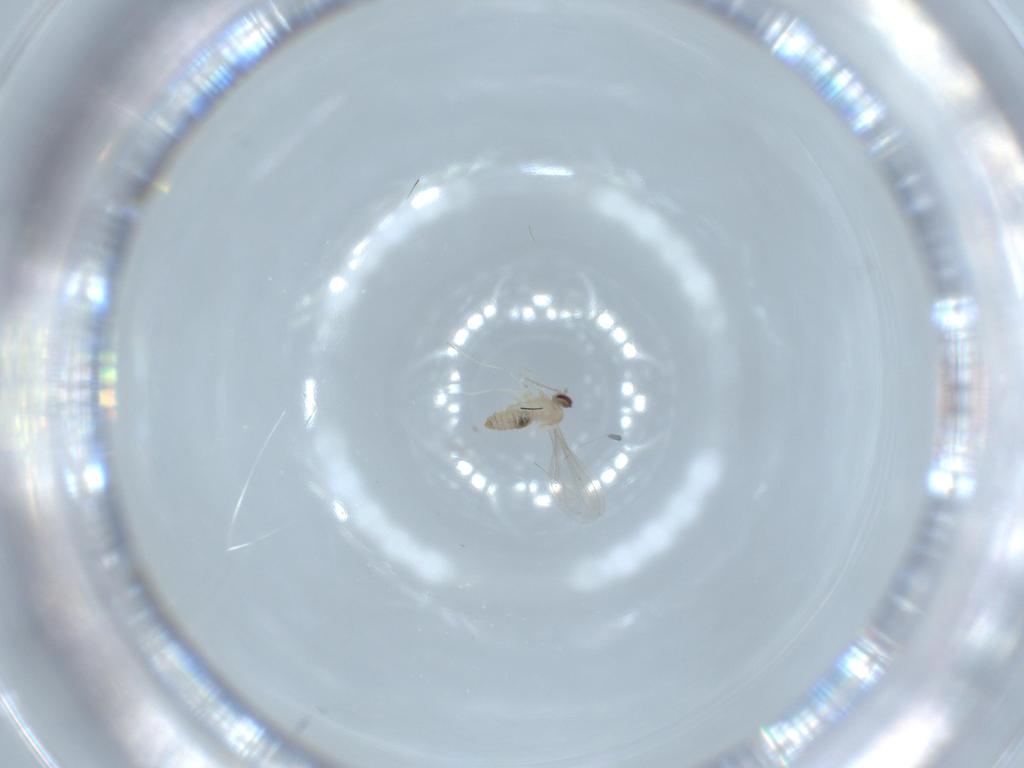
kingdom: Animalia
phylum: Arthropoda
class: Insecta
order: Diptera
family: Cecidomyiidae
